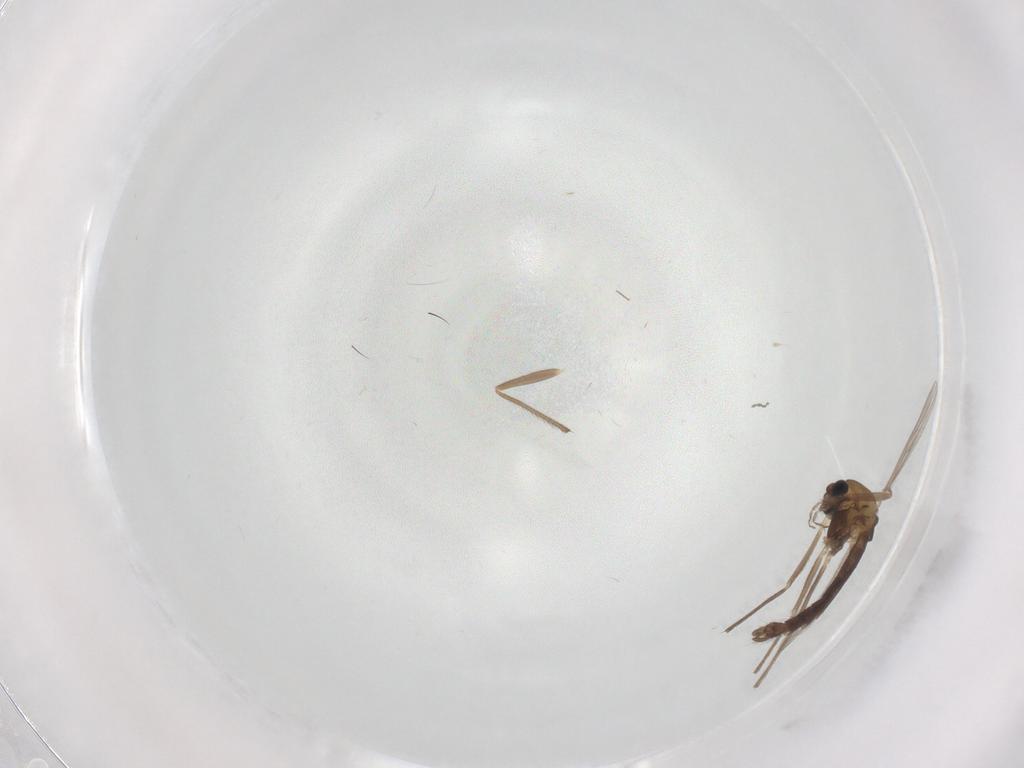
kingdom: Animalia
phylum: Arthropoda
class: Insecta
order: Diptera
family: Chironomidae
